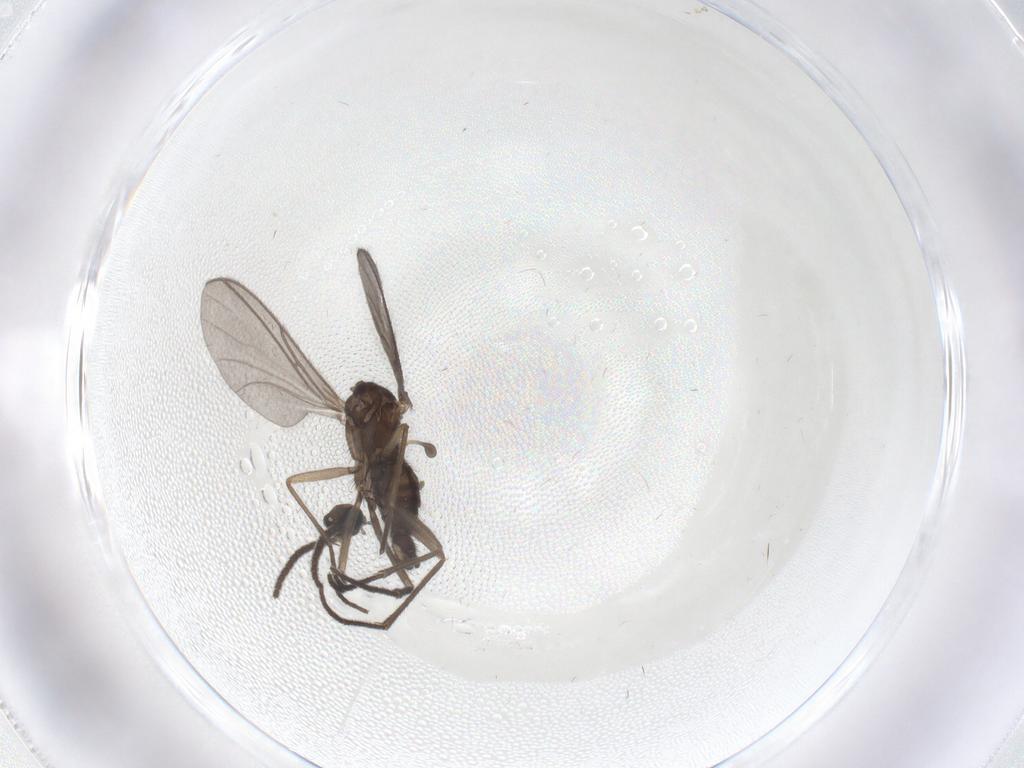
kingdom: Animalia
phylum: Arthropoda
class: Insecta
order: Diptera
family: Sciaridae
